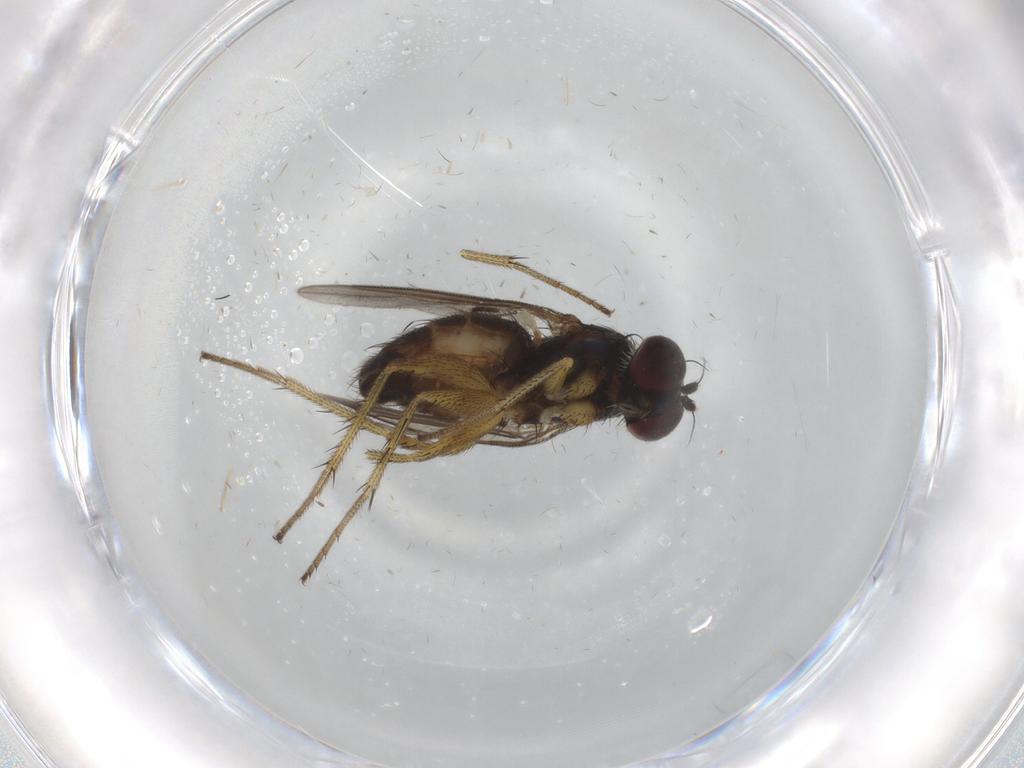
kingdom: Animalia
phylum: Arthropoda
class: Insecta
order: Diptera
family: Dolichopodidae
